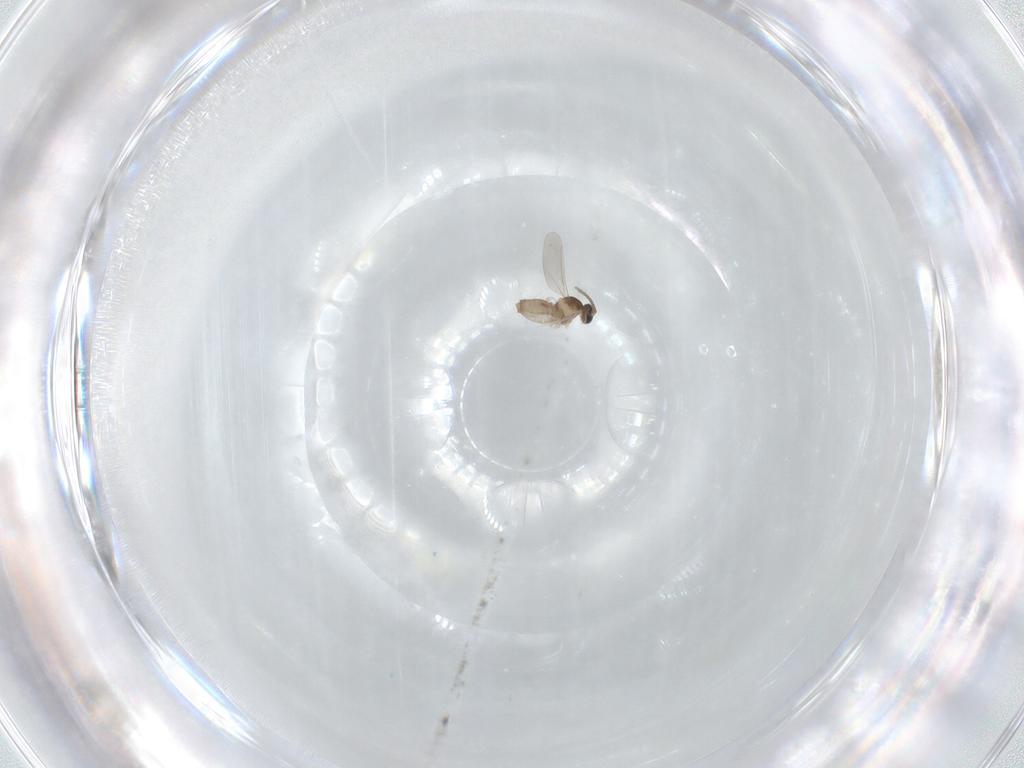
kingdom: Animalia
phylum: Arthropoda
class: Insecta
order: Diptera
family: Cecidomyiidae
